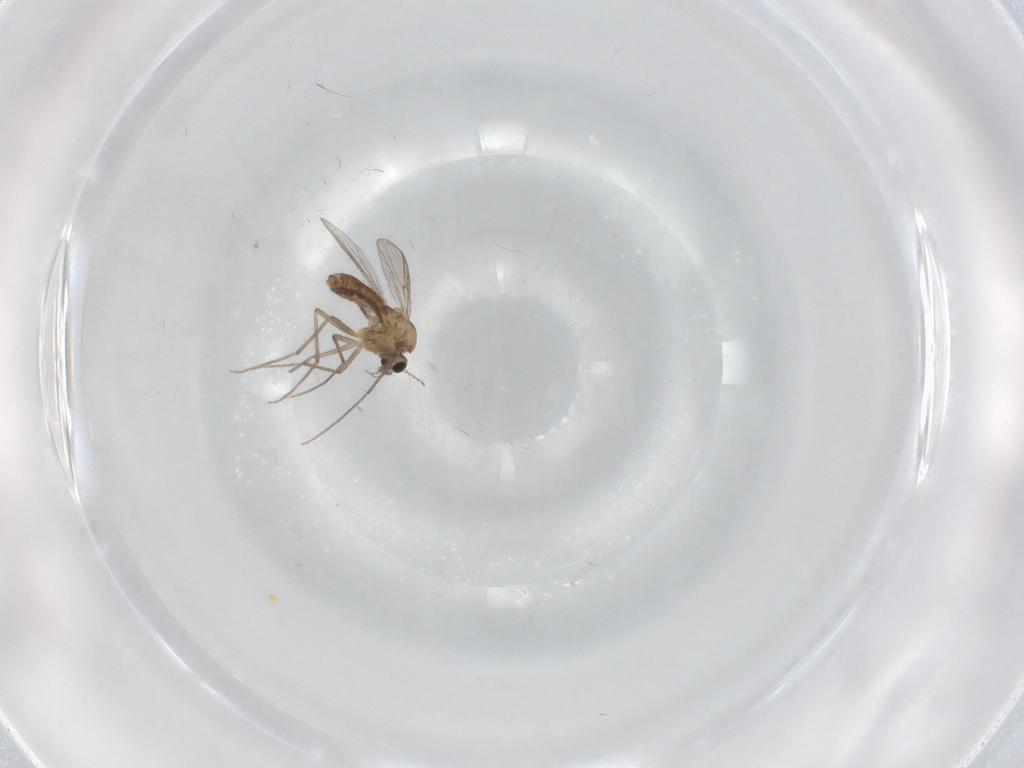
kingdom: Animalia
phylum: Arthropoda
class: Insecta
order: Diptera
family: Chironomidae
